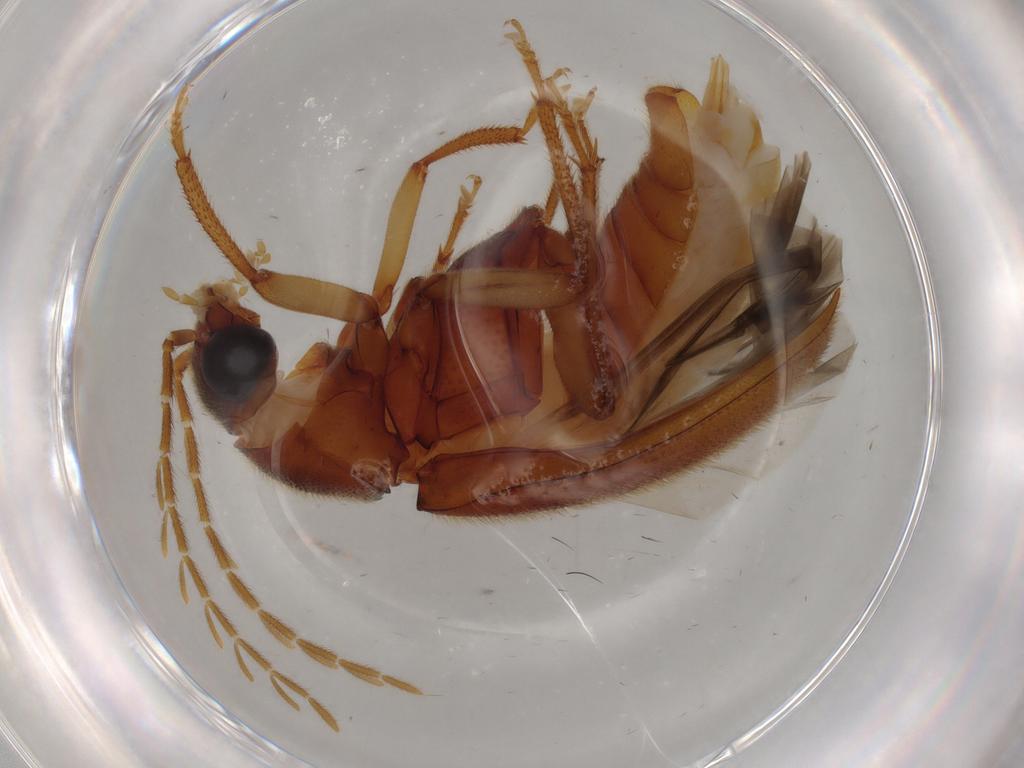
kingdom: Animalia
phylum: Arthropoda
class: Insecta
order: Coleoptera
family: Ptilodactylidae
